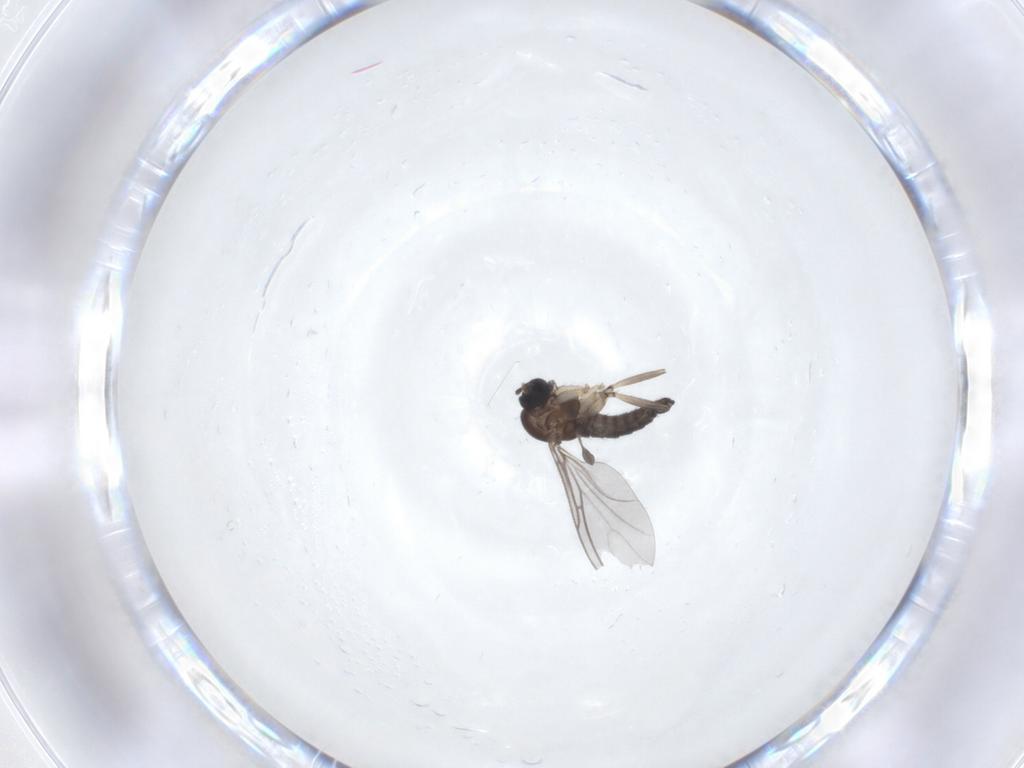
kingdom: Animalia
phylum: Arthropoda
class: Insecta
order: Diptera
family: Sciaridae
